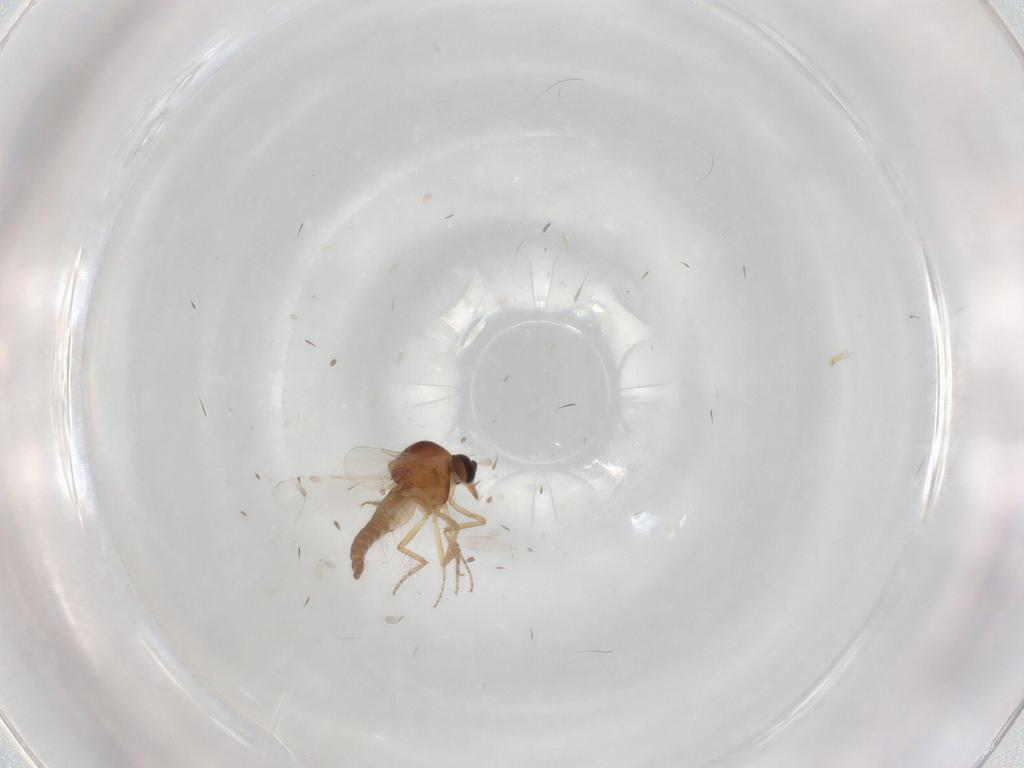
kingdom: Animalia
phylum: Arthropoda
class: Insecta
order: Diptera
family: Ceratopogonidae
